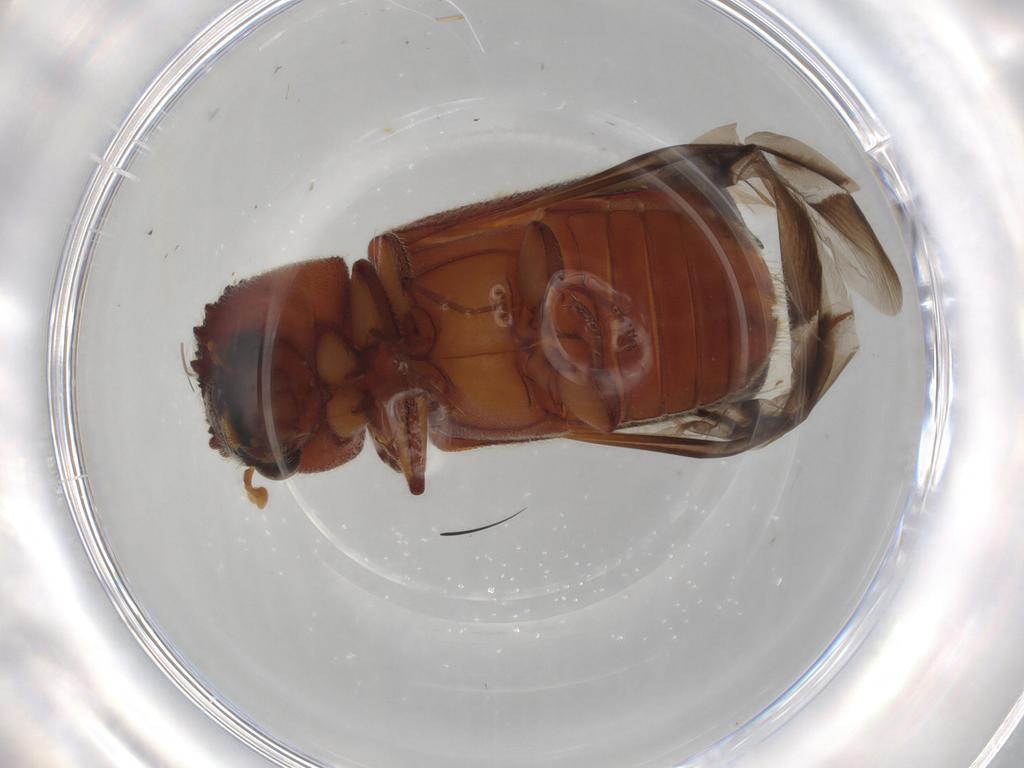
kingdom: Animalia
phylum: Arthropoda
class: Insecta
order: Coleoptera
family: Bostrichidae
